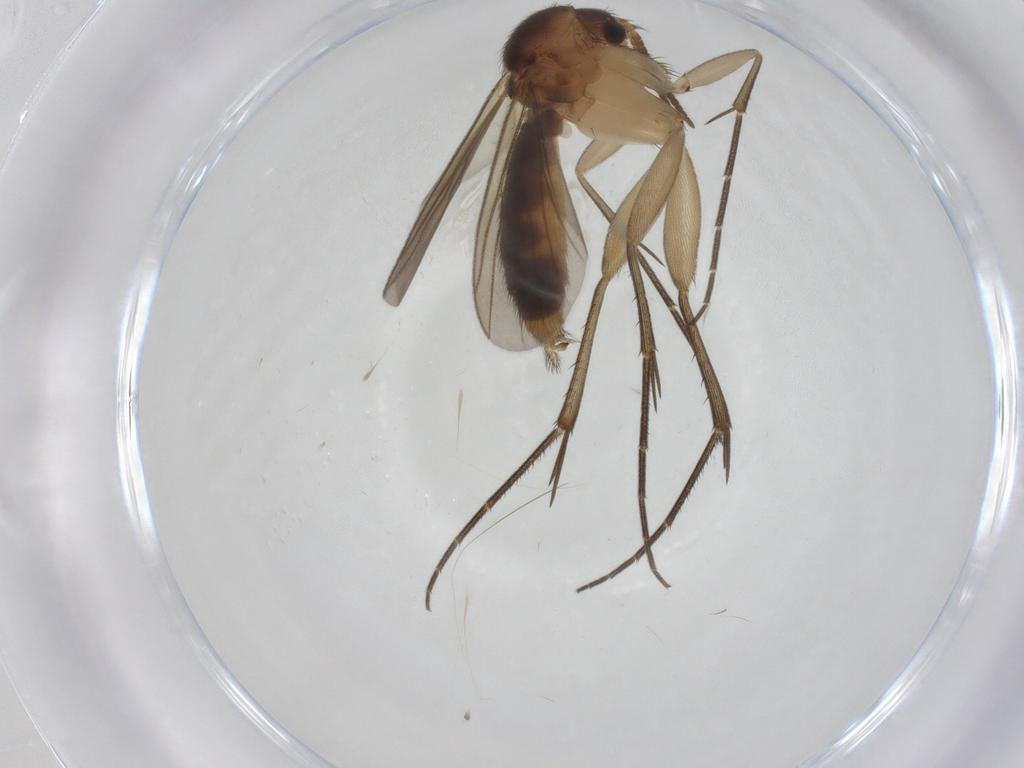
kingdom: Animalia
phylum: Arthropoda
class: Insecta
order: Diptera
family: Mycetophilidae
